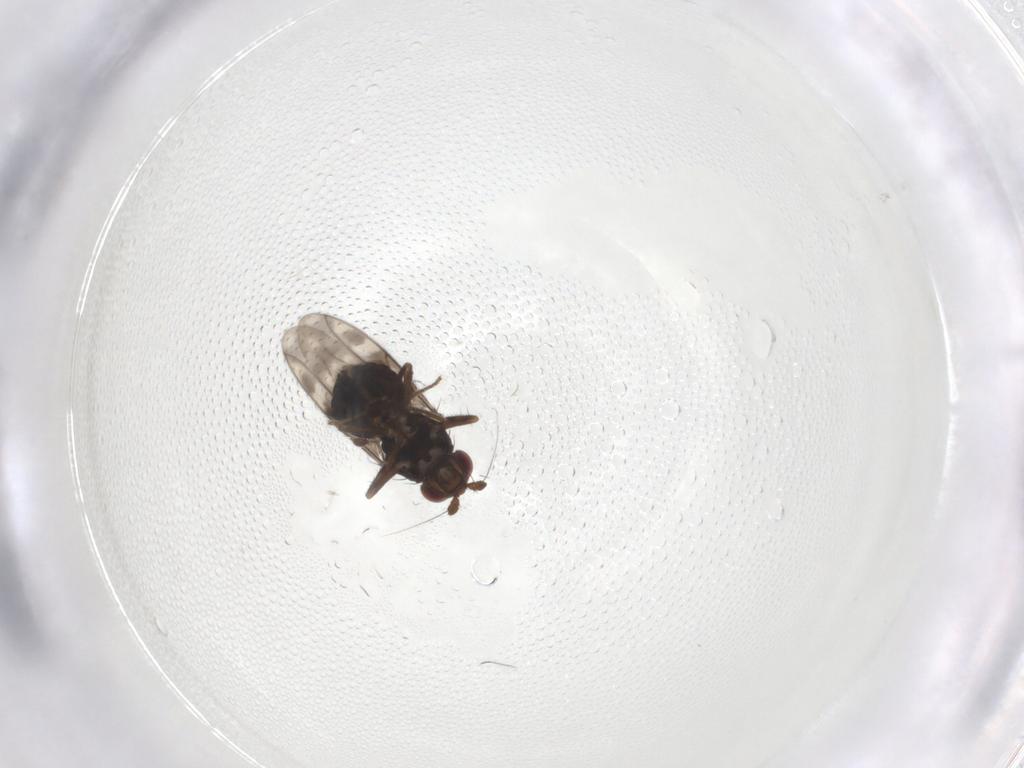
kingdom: Animalia
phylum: Arthropoda
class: Insecta
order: Diptera
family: Sphaeroceridae
